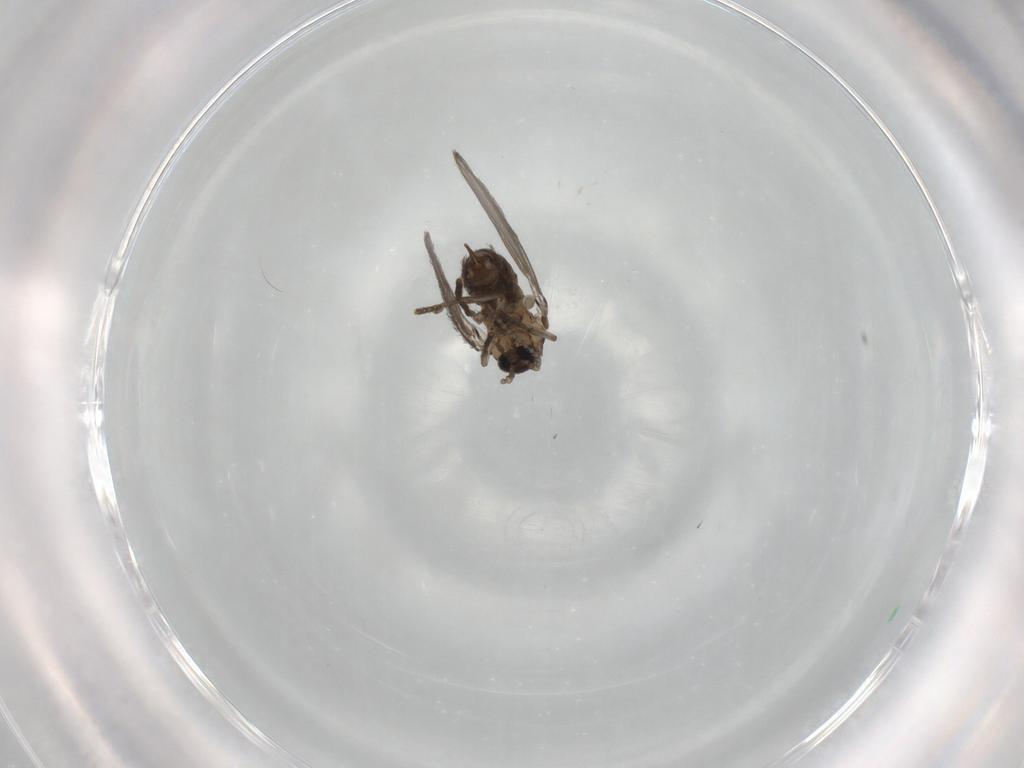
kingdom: Animalia
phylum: Arthropoda
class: Insecta
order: Diptera
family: Psychodidae
